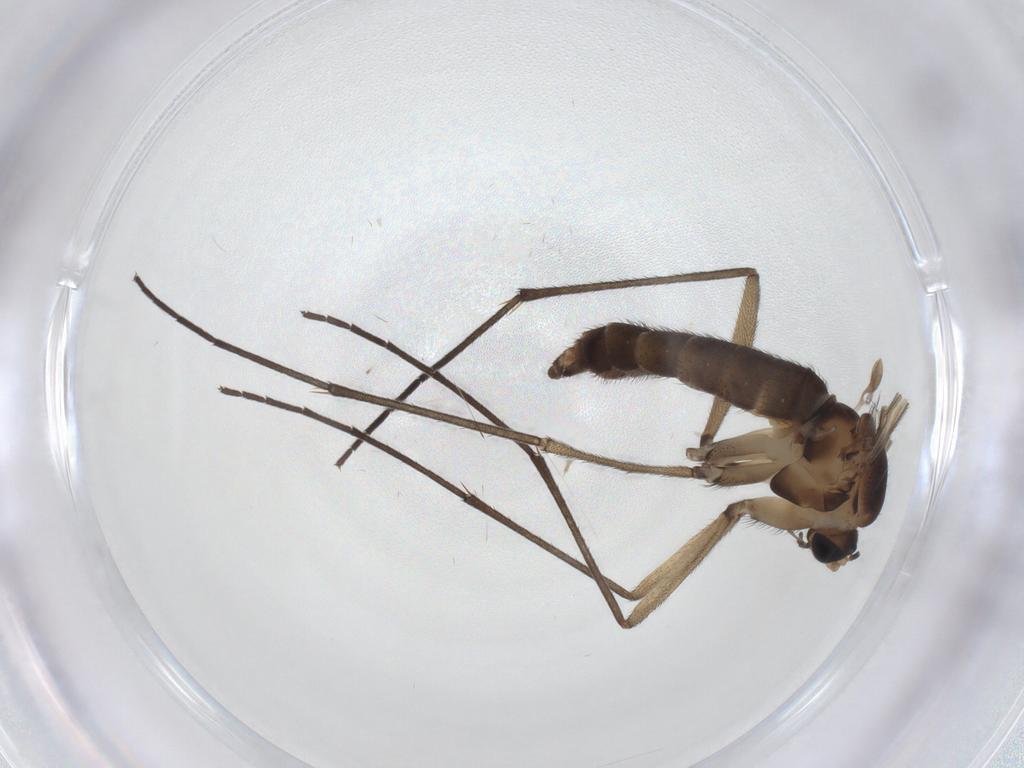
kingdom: Animalia
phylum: Arthropoda
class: Insecta
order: Diptera
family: Sciaridae
